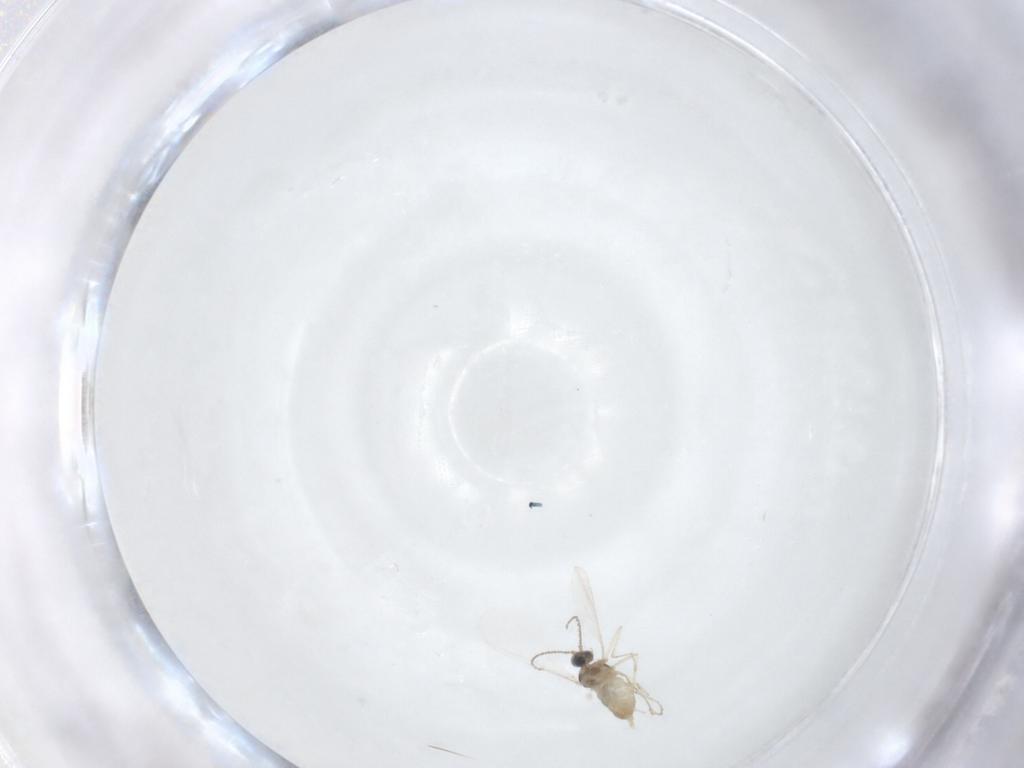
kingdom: Animalia
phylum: Arthropoda
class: Insecta
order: Diptera
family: Cecidomyiidae
